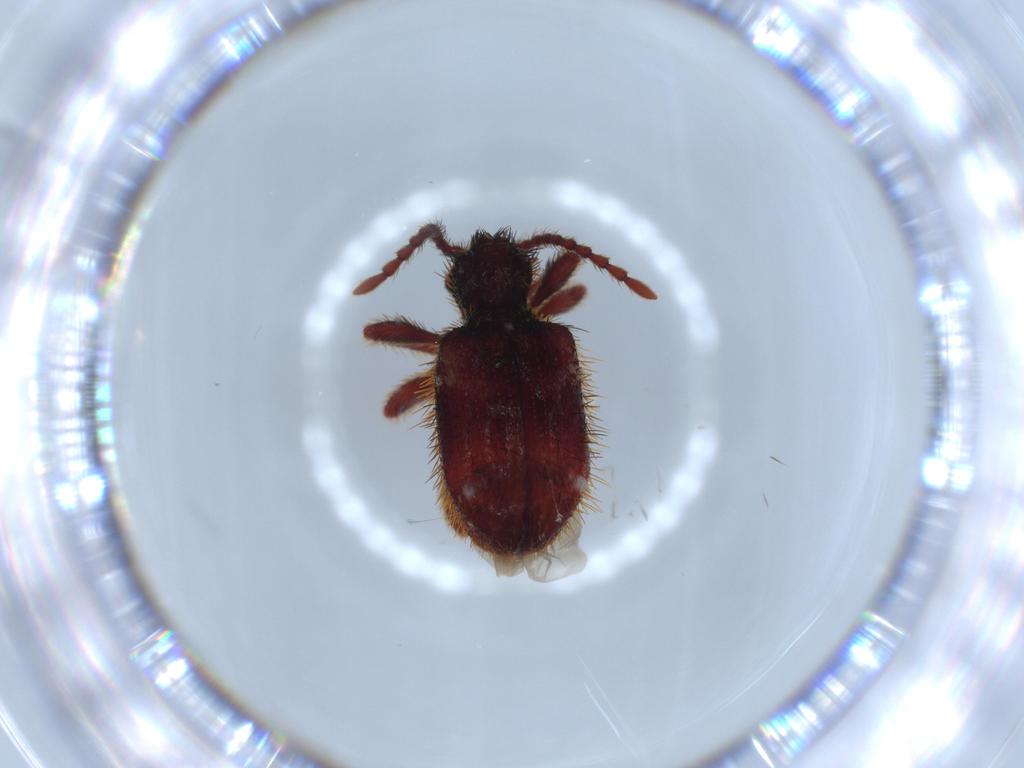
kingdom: Animalia
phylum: Arthropoda
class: Insecta
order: Coleoptera
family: Ptinidae
